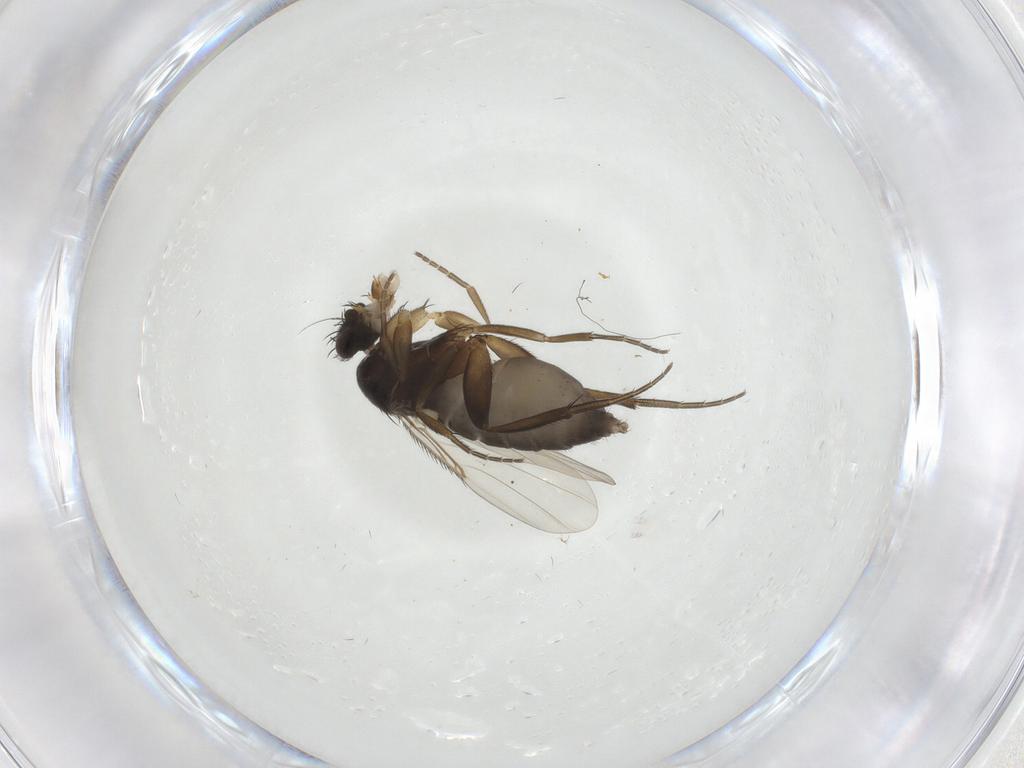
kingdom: Animalia
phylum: Arthropoda
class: Insecta
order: Diptera
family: Phoridae
